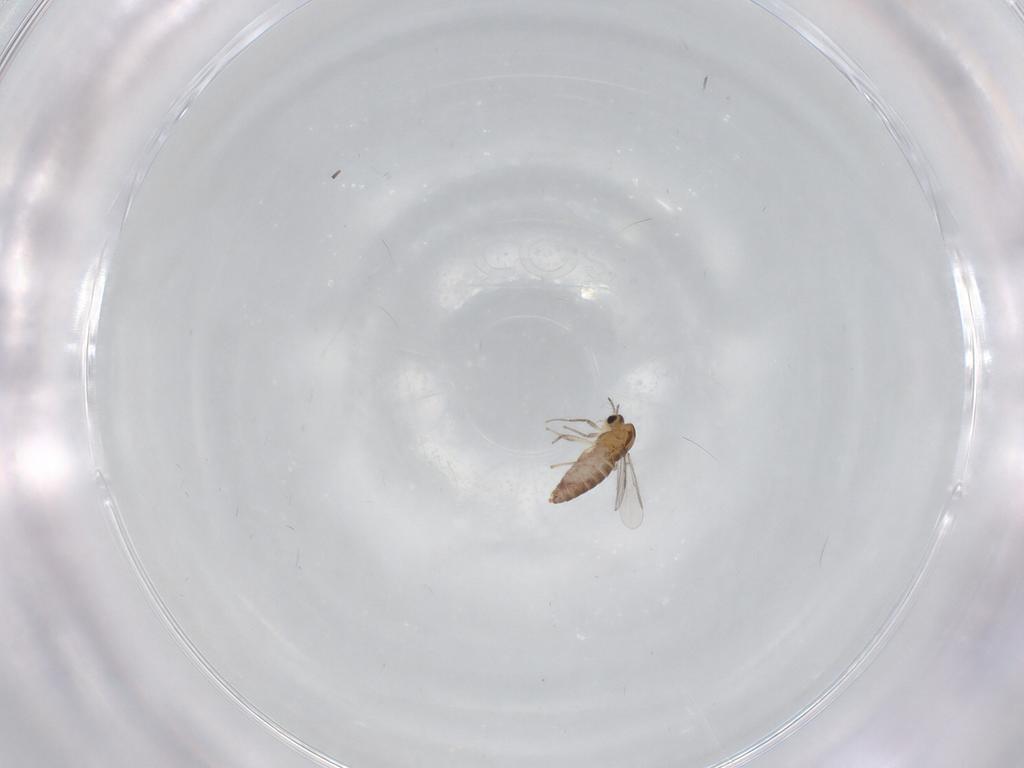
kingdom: Animalia
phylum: Arthropoda
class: Insecta
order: Diptera
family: Chironomidae
